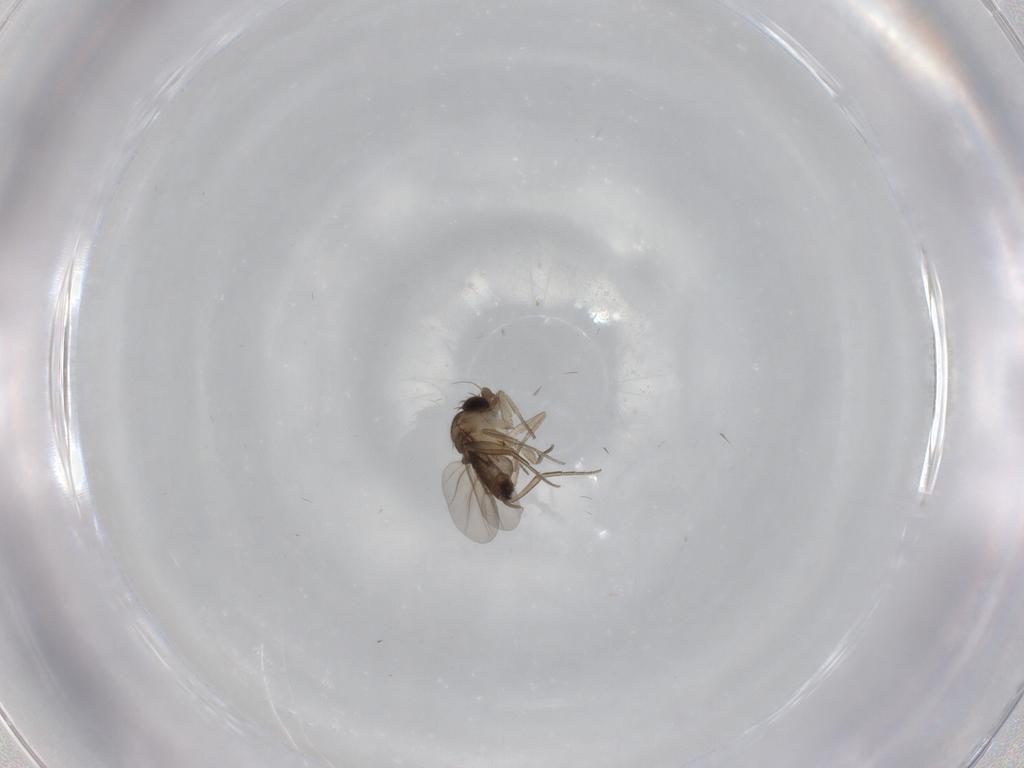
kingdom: Animalia
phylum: Arthropoda
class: Insecta
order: Diptera
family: Phoridae
